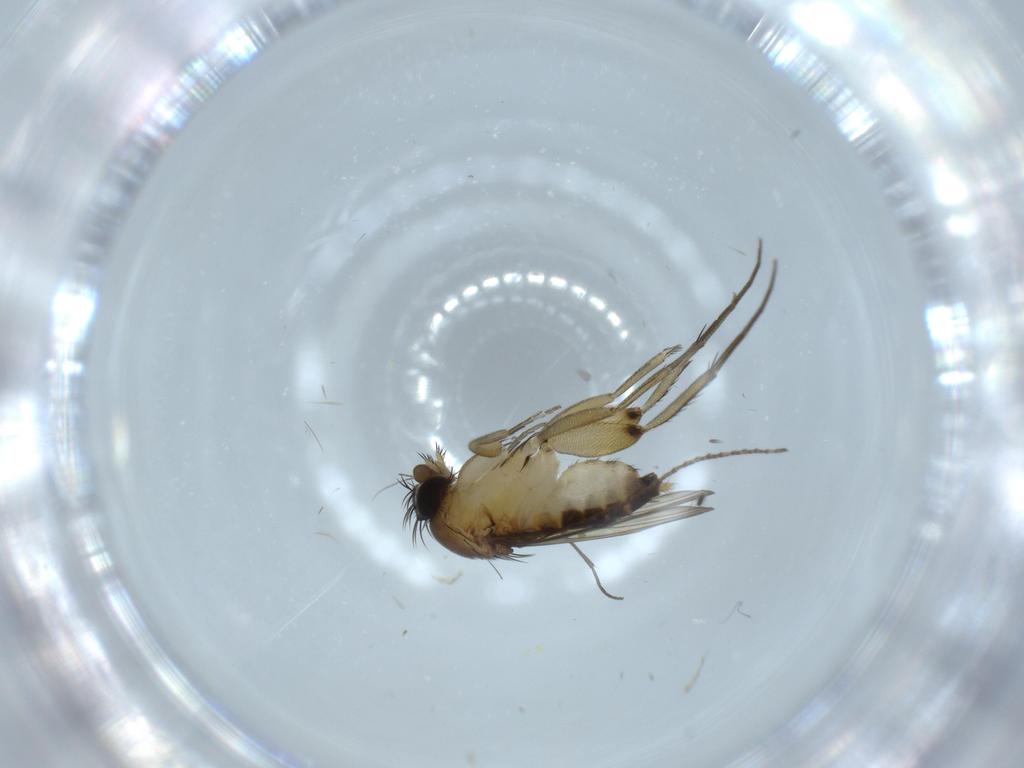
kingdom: Animalia
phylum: Arthropoda
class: Insecta
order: Diptera
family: Phoridae
